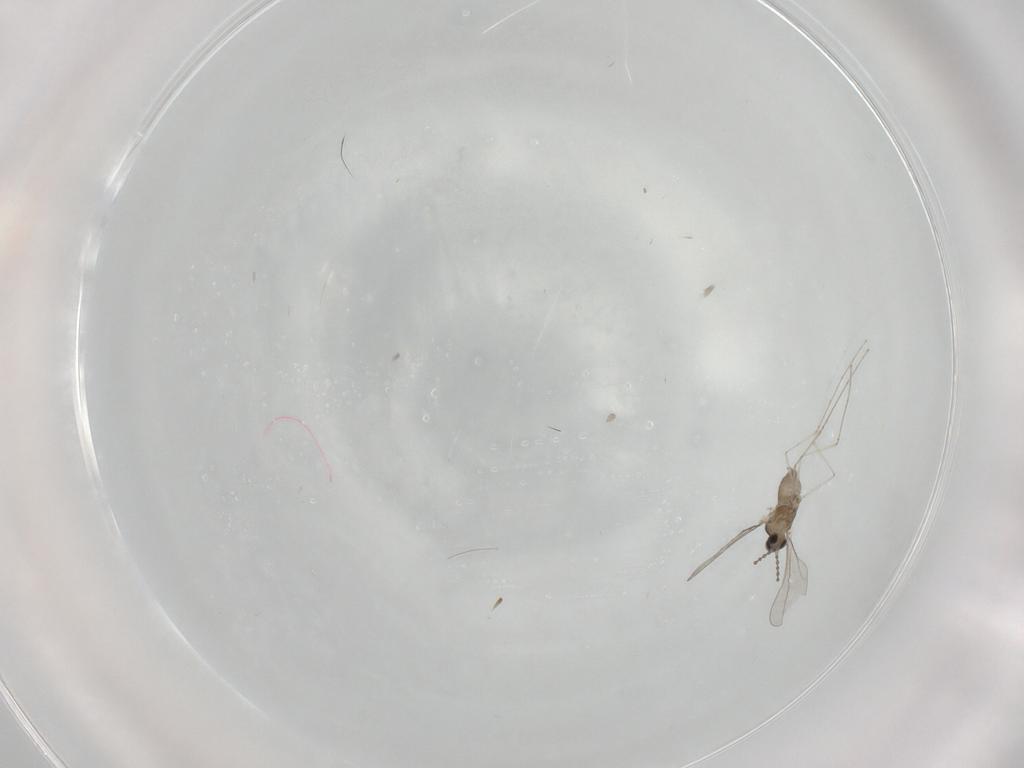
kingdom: Animalia
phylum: Arthropoda
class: Insecta
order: Diptera
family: Cecidomyiidae
